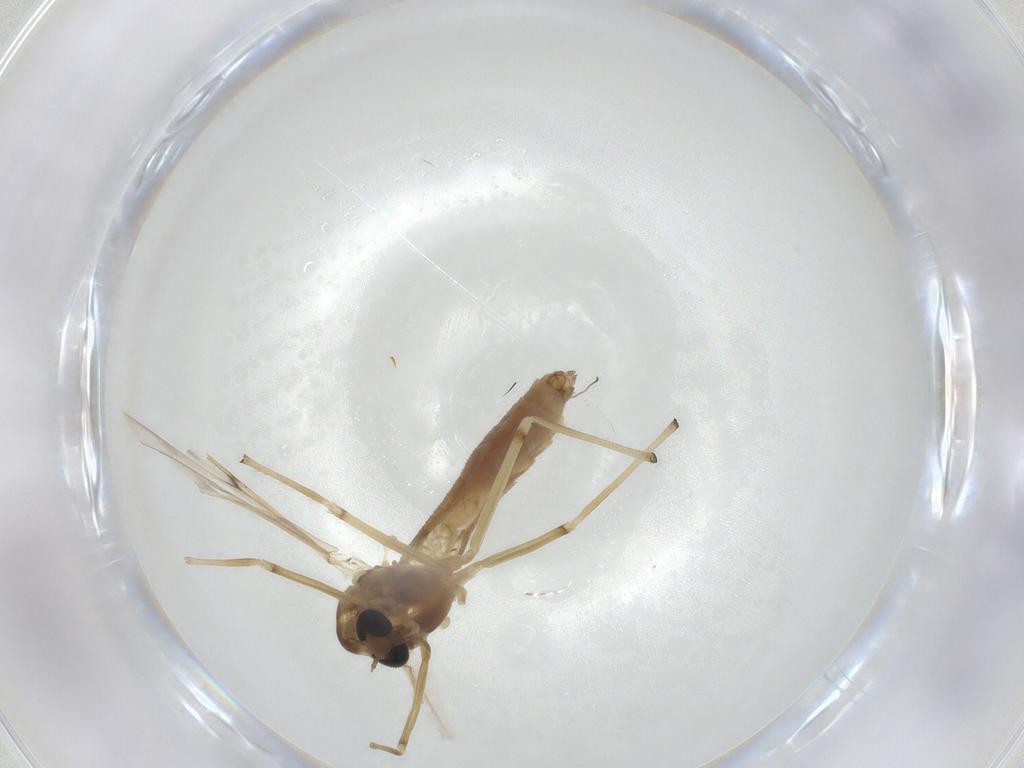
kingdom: Animalia
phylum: Arthropoda
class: Insecta
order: Diptera
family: Chironomidae
